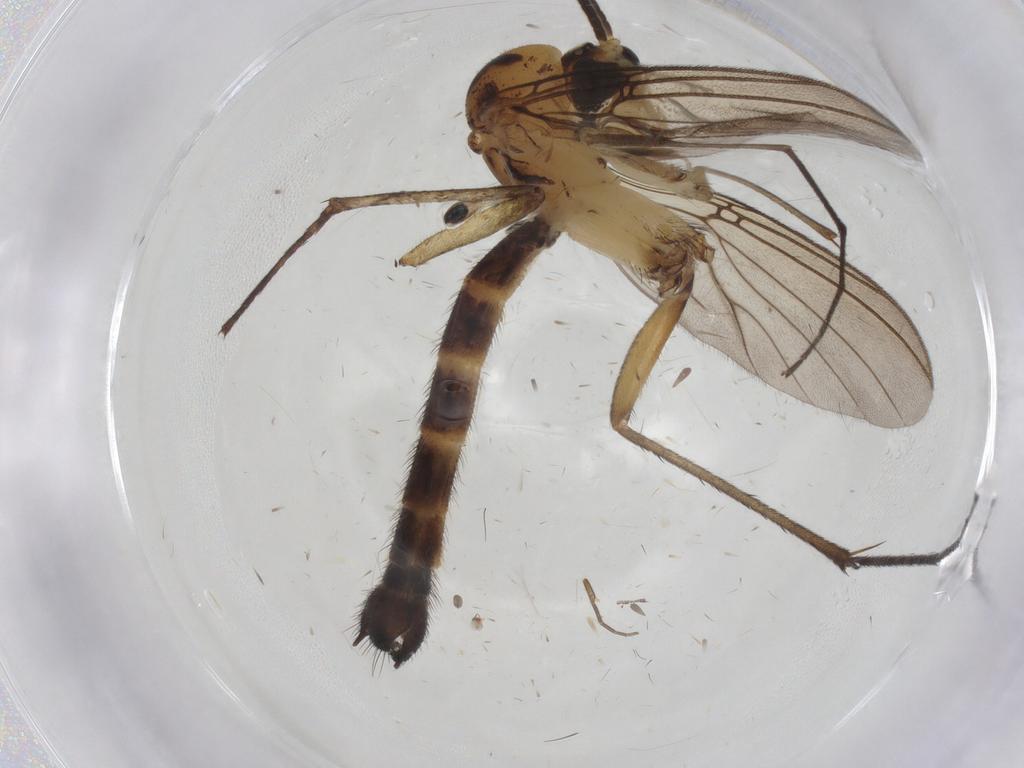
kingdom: Animalia
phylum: Arthropoda
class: Insecta
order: Diptera
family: Mycetophilidae
